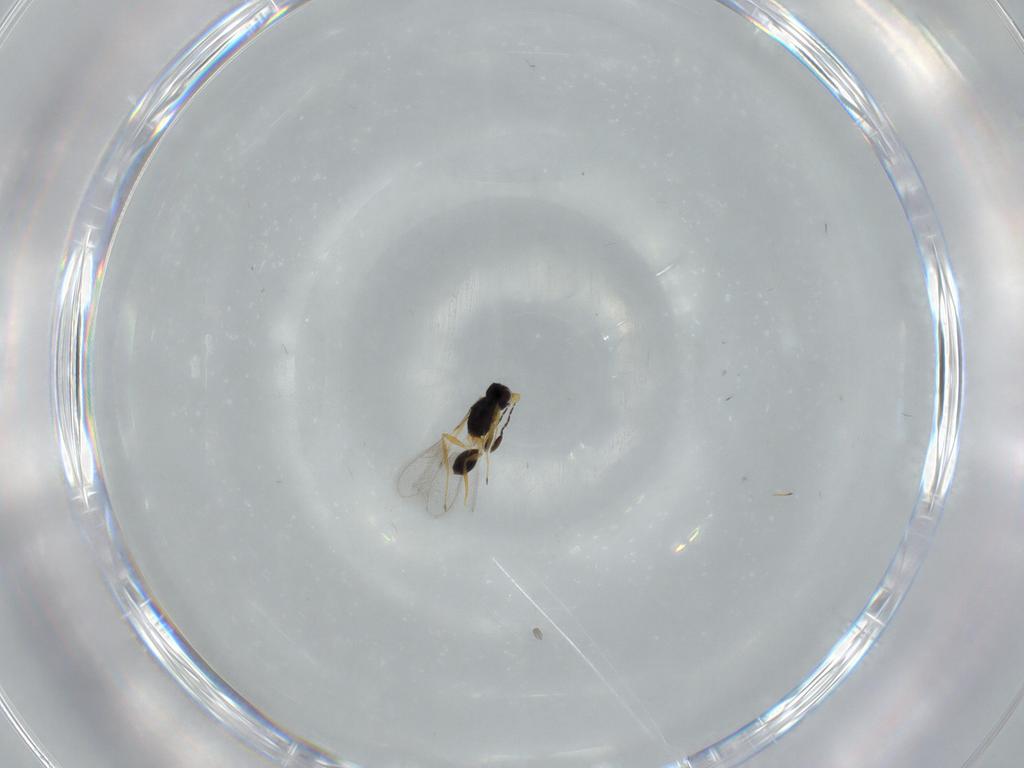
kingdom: Animalia
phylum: Arthropoda
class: Insecta
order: Hymenoptera
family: Mymaridae
